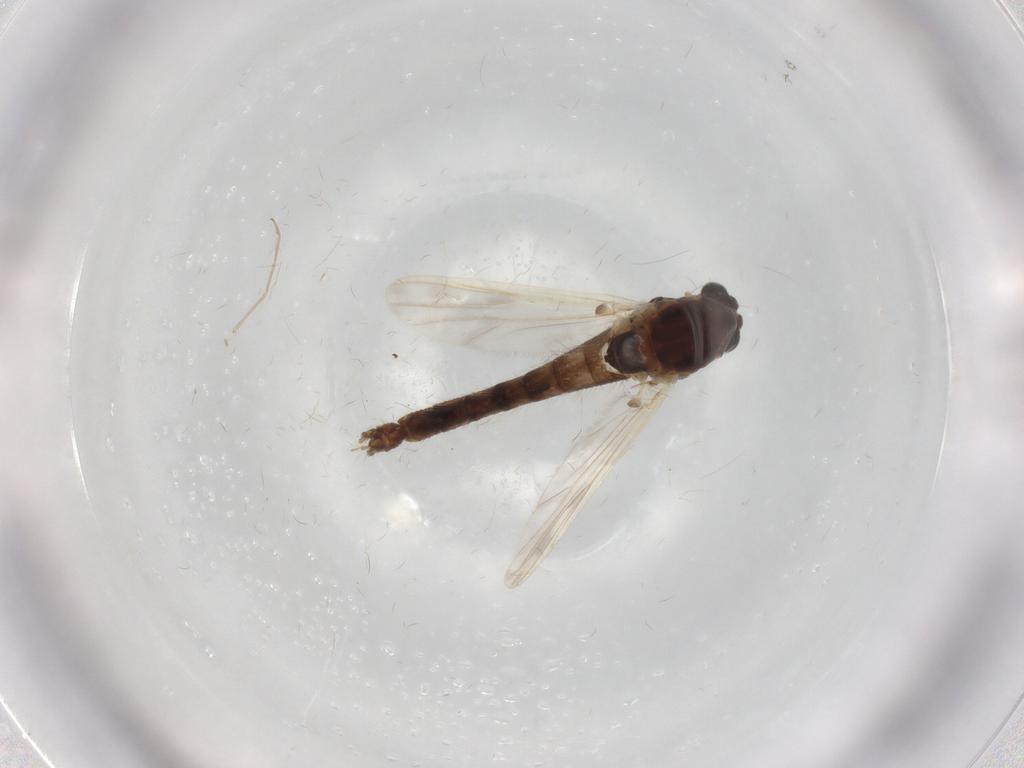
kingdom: Animalia
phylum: Arthropoda
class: Insecta
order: Diptera
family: Chironomidae
